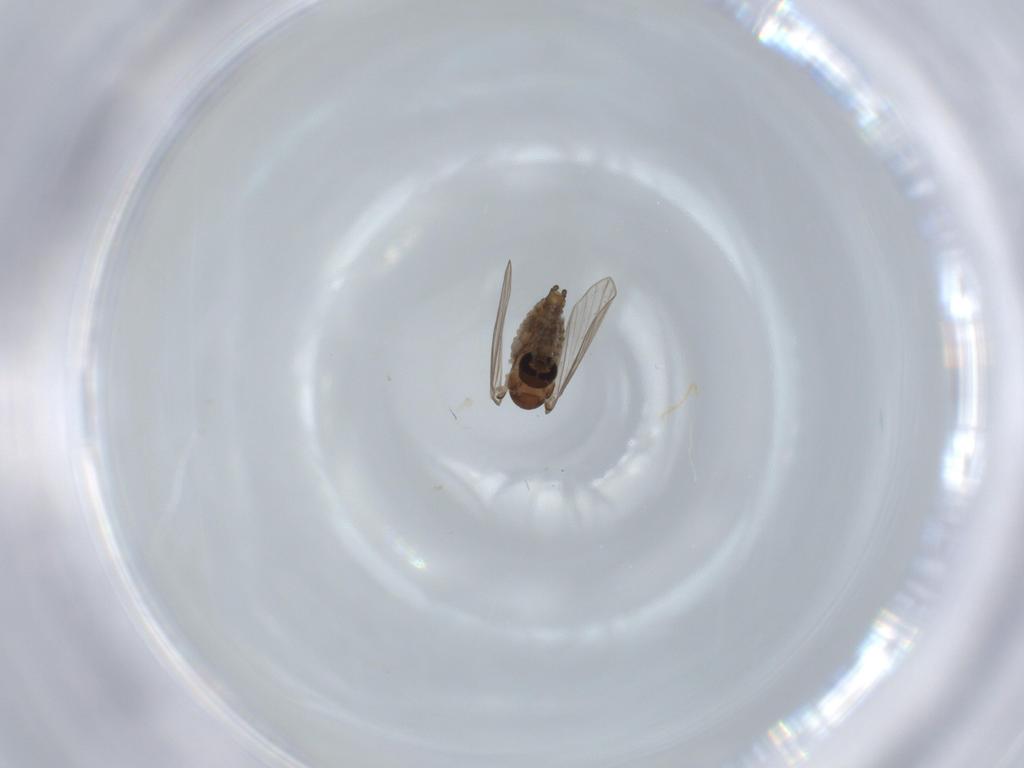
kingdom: Animalia
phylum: Arthropoda
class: Insecta
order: Diptera
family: Psychodidae
